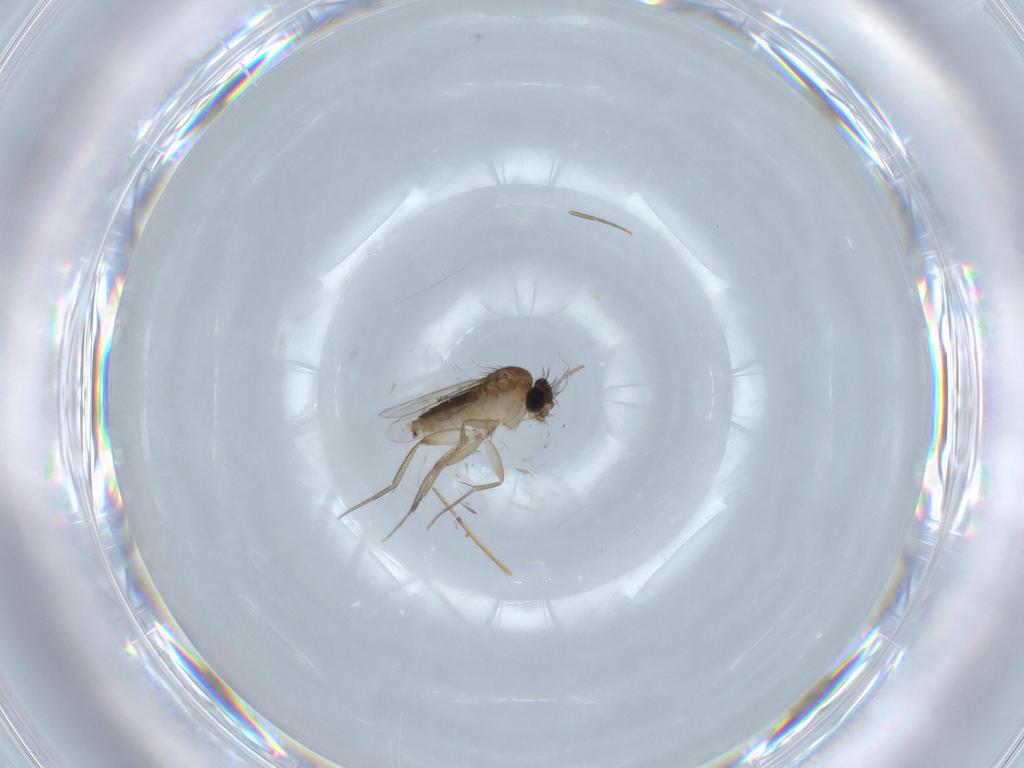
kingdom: Animalia
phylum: Arthropoda
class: Insecta
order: Diptera
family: Phoridae
